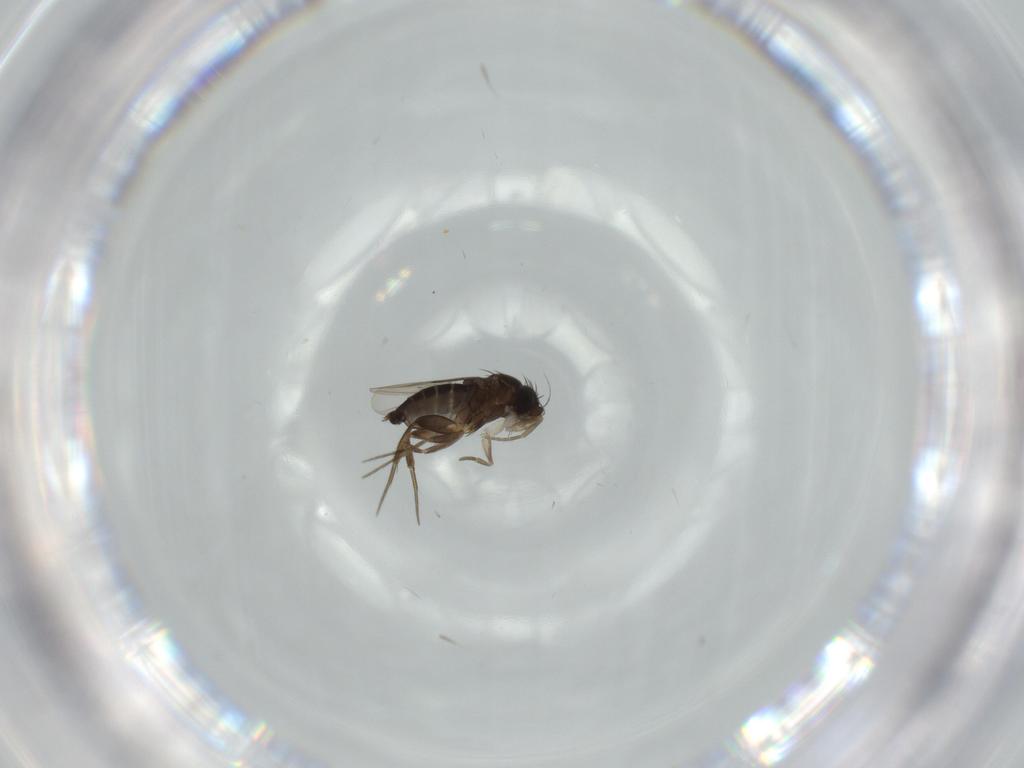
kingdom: Animalia
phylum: Arthropoda
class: Insecta
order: Diptera
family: Phoridae
